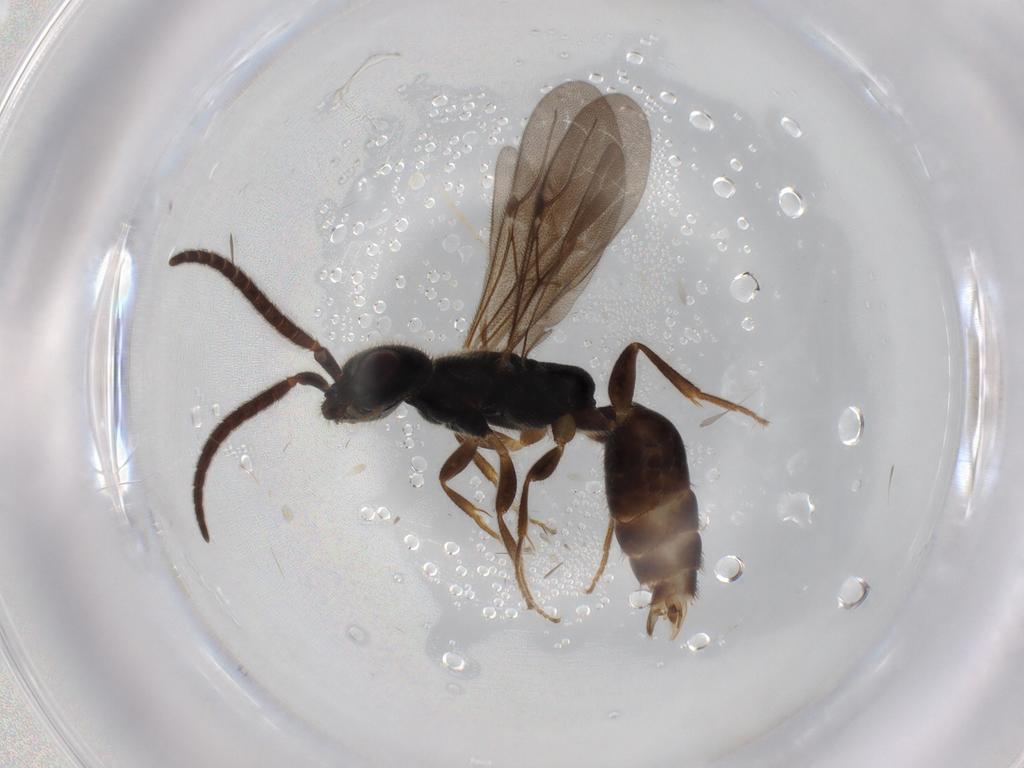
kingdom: Animalia
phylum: Arthropoda
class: Insecta
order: Hymenoptera
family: Bethylidae
